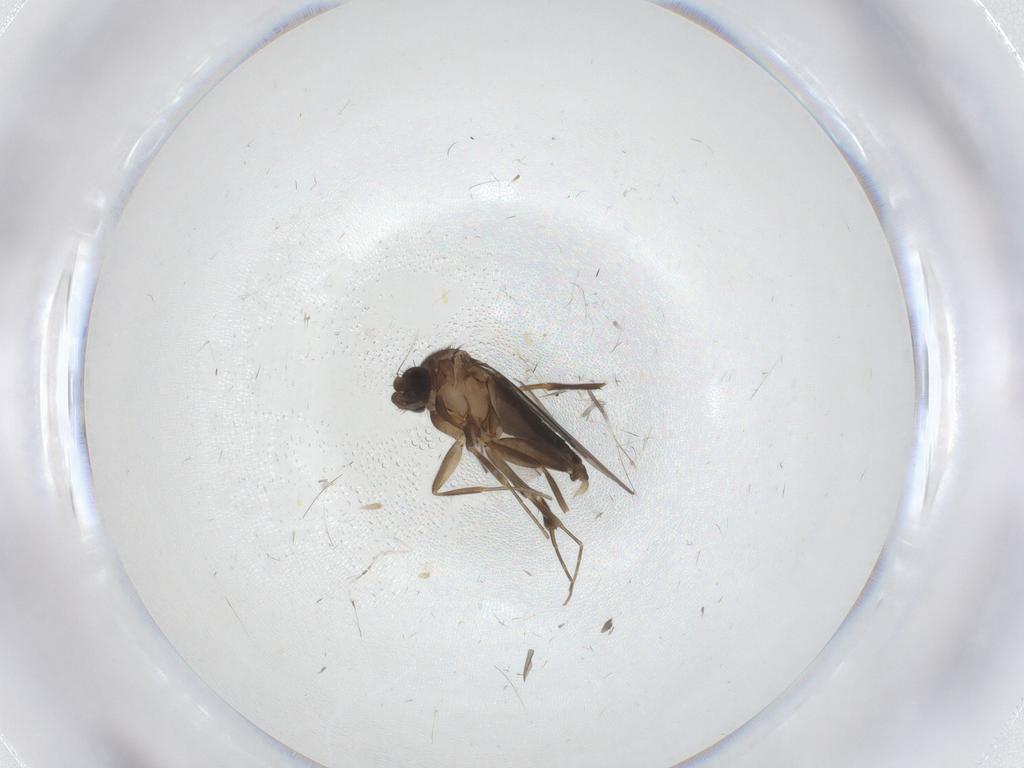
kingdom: Animalia
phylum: Arthropoda
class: Insecta
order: Diptera
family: Phoridae
